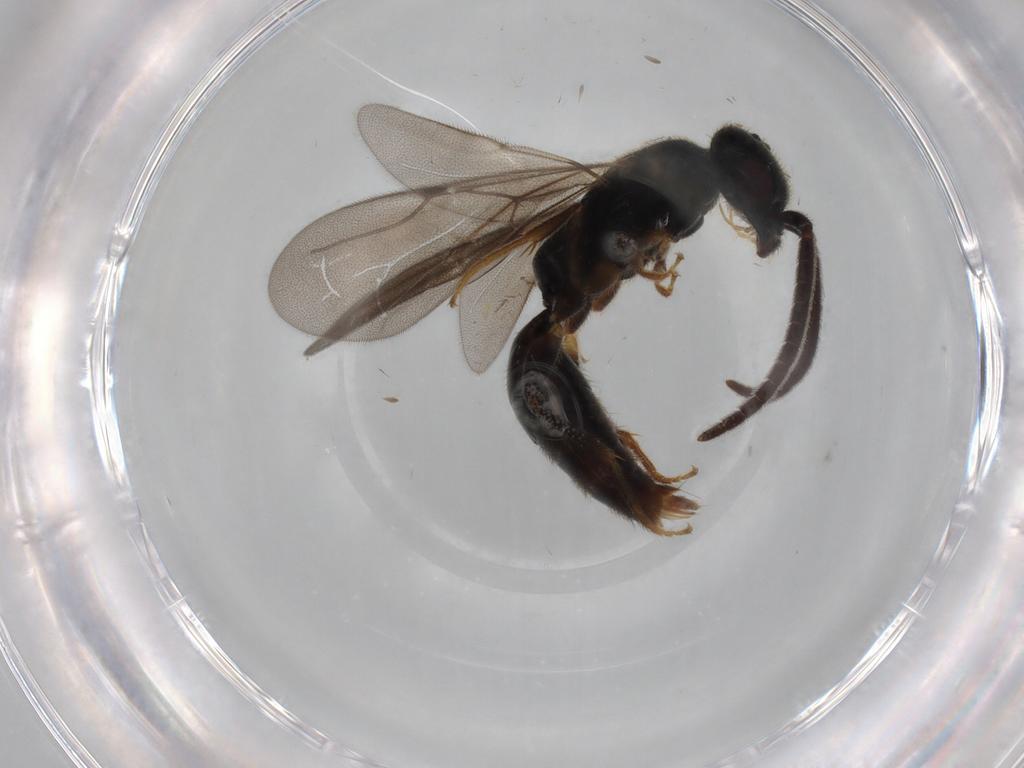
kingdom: Animalia
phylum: Arthropoda
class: Insecta
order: Hymenoptera
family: Bethylidae
